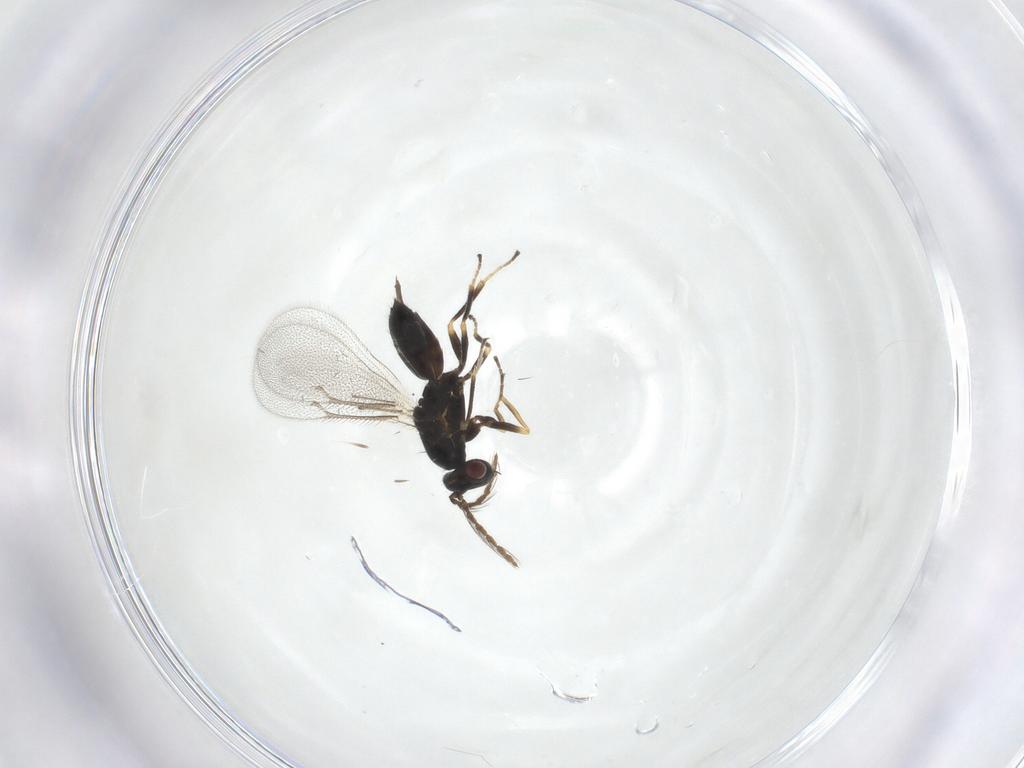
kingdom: Animalia
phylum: Arthropoda
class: Insecta
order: Hymenoptera
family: Eulophidae
